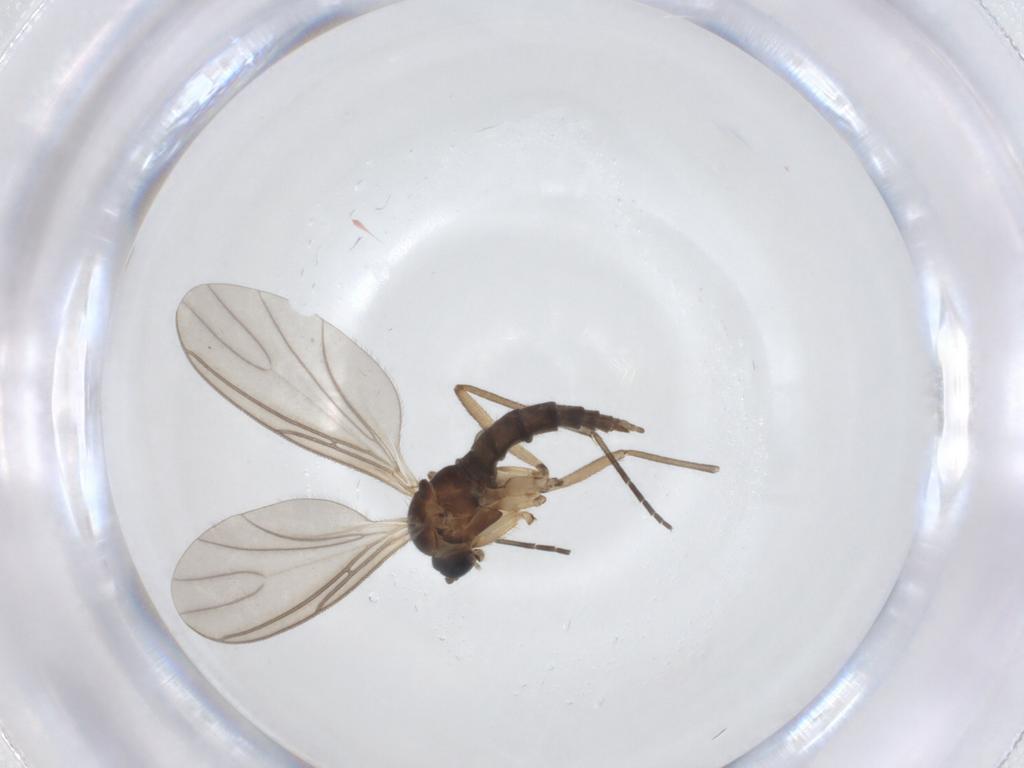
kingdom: Animalia
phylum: Arthropoda
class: Insecta
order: Diptera
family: Sciaridae
